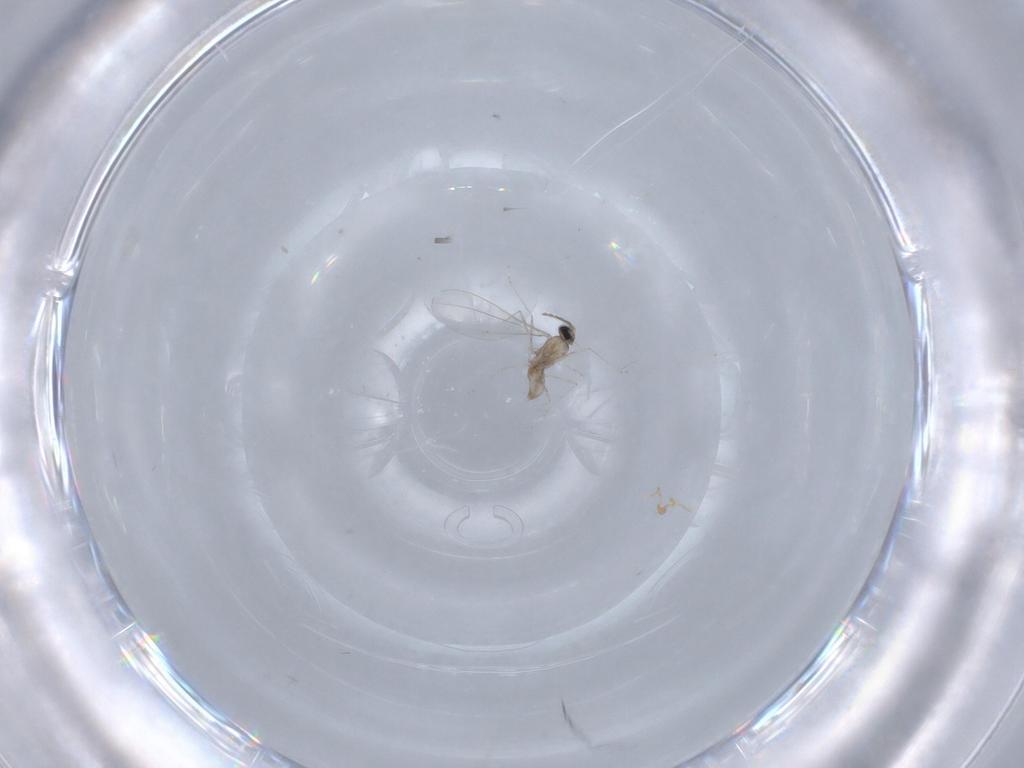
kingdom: Animalia
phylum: Arthropoda
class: Insecta
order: Diptera
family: Cecidomyiidae
